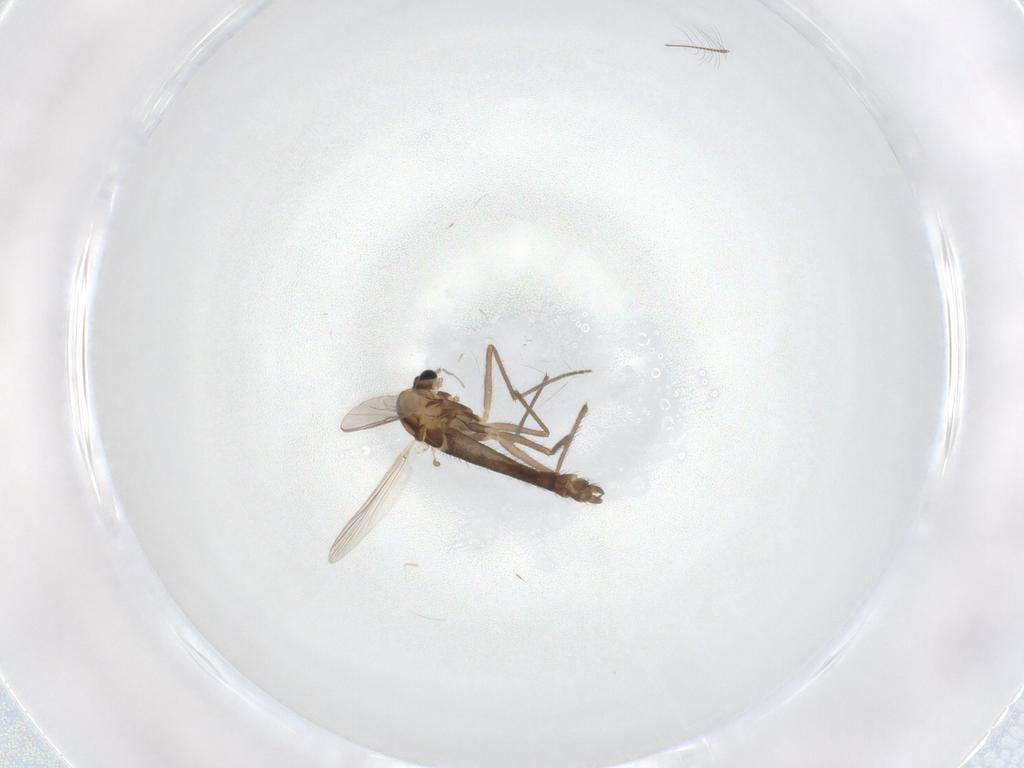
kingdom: Animalia
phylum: Arthropoda
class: Insecta
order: Diptera
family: Chironomidae
